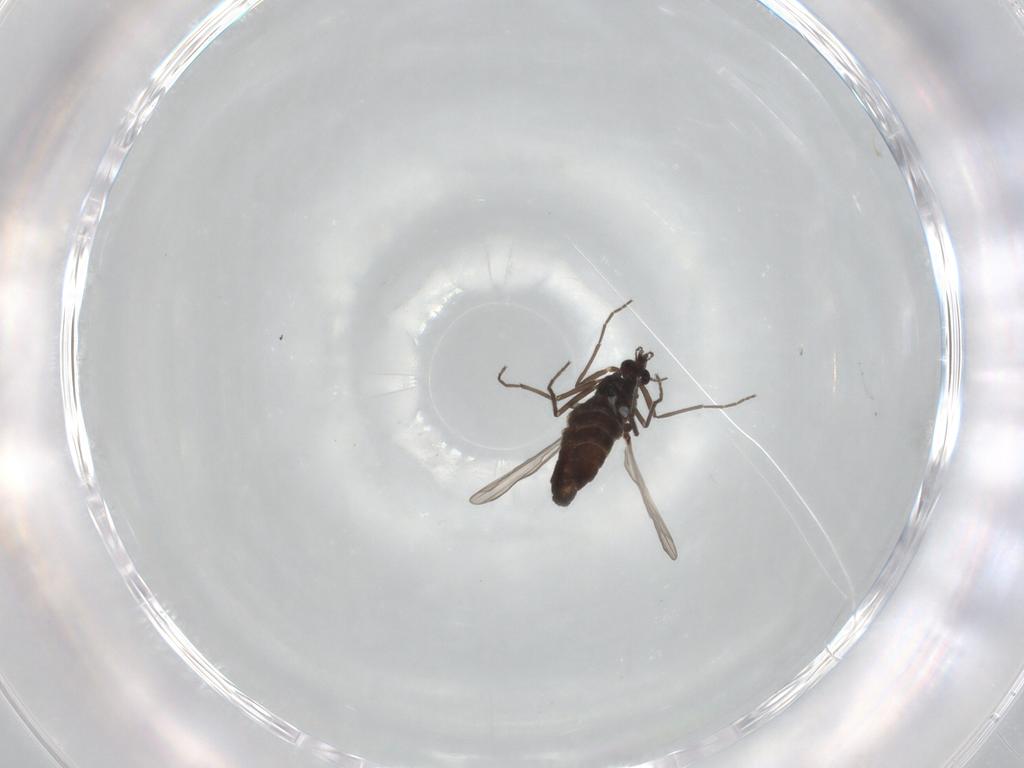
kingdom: Animalia
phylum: Arthropoda
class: Insecta
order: Diptera
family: Chironomidae
